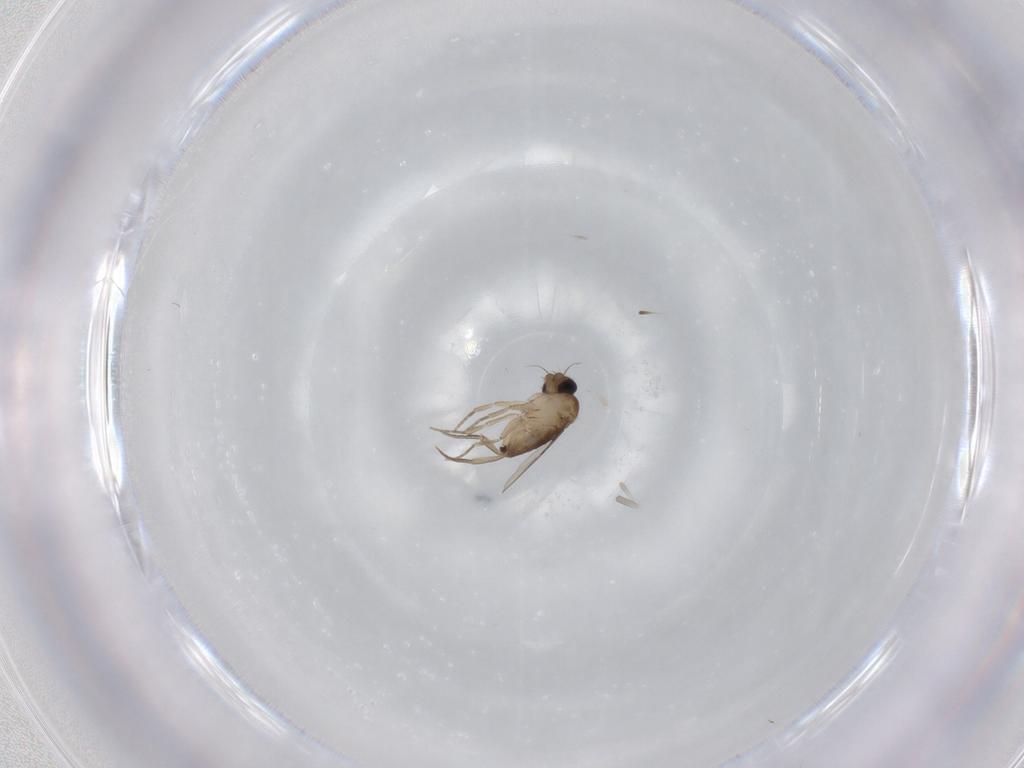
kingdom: Animalia
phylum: Arthropoda
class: Insecta
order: Diptera
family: Phoridae
